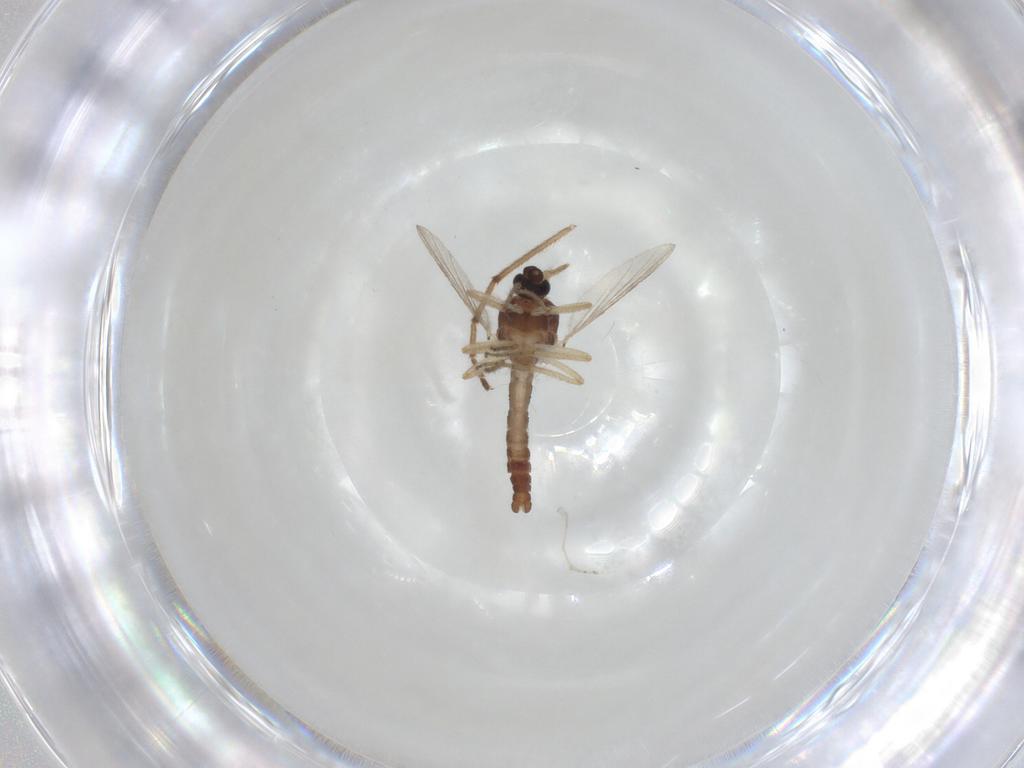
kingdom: Animalia
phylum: Arthropoda
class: Insecta
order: Diptera
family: Ceratopogonidae
